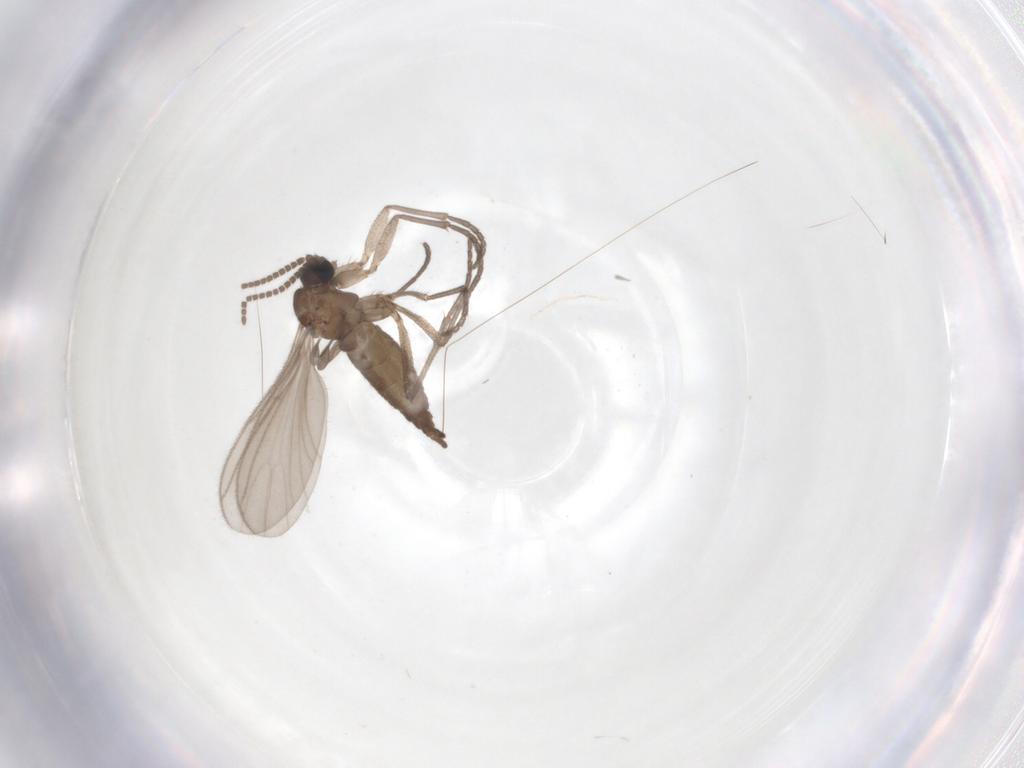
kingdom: Animalia
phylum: Arthropoda
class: Insecta
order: Diptera
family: Sciaridae
